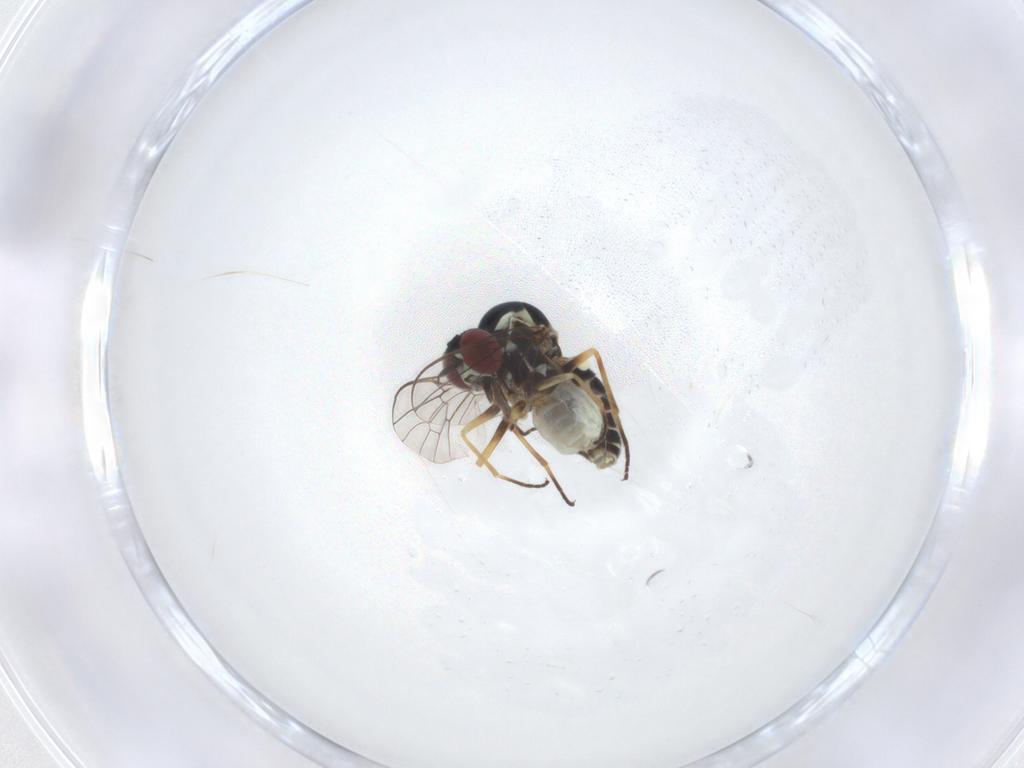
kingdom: Animalia
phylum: Arthropoda
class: Insecta
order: Diptera
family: Bombyliidae
